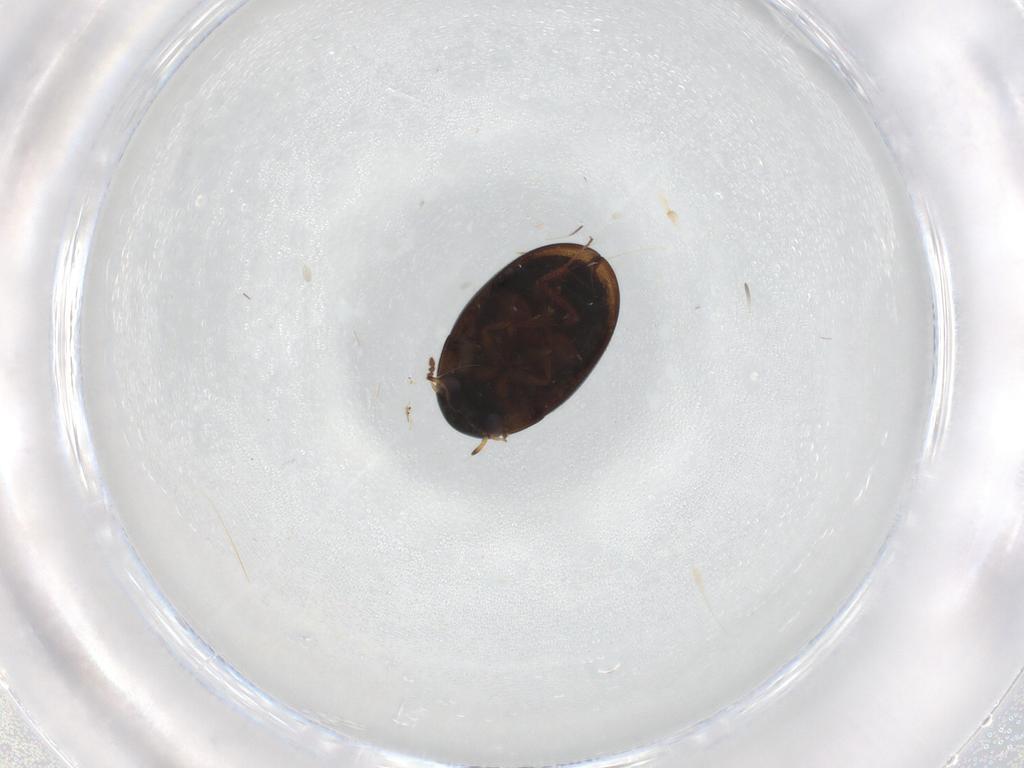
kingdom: Animalia
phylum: Arthropoda
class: Insecta
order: Coleoptera
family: Hydrophilidae
